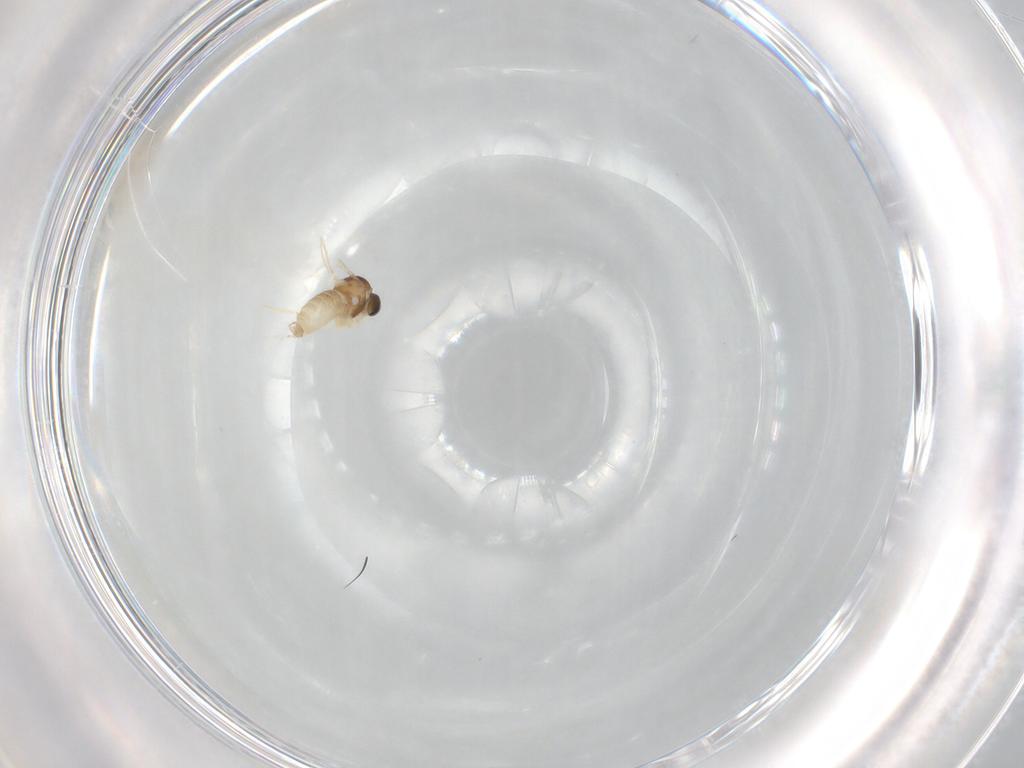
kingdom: Animalia
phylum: Arthropoda
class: Insecta
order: Diptera
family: Cecidomyiidae
